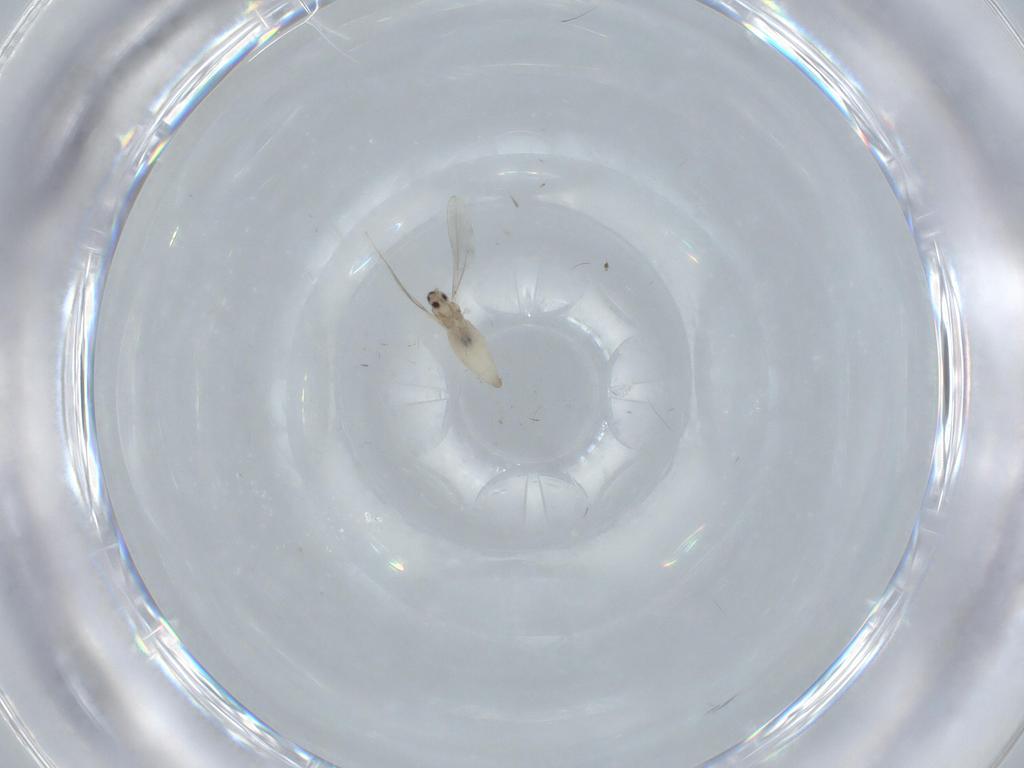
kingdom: Animalia
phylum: Arthropoda
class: Insecta
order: Diptera
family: Cecidomyiidae
